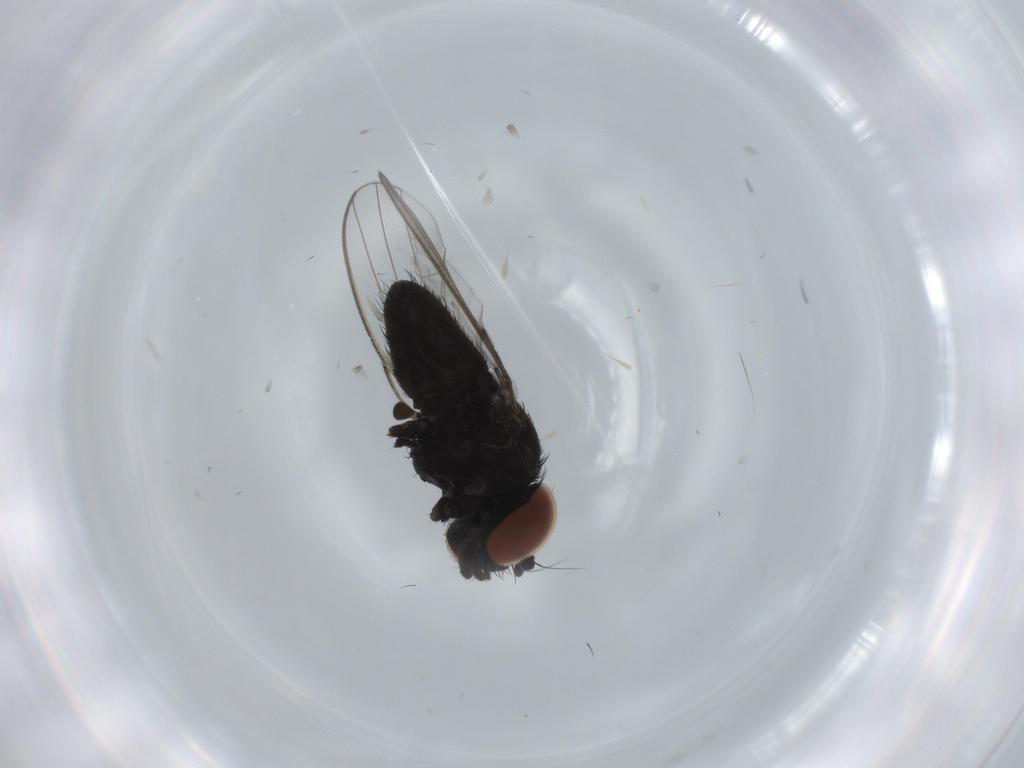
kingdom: Animalia
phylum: Arthropoda
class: Insecta
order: Diptera
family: Milichiidae
